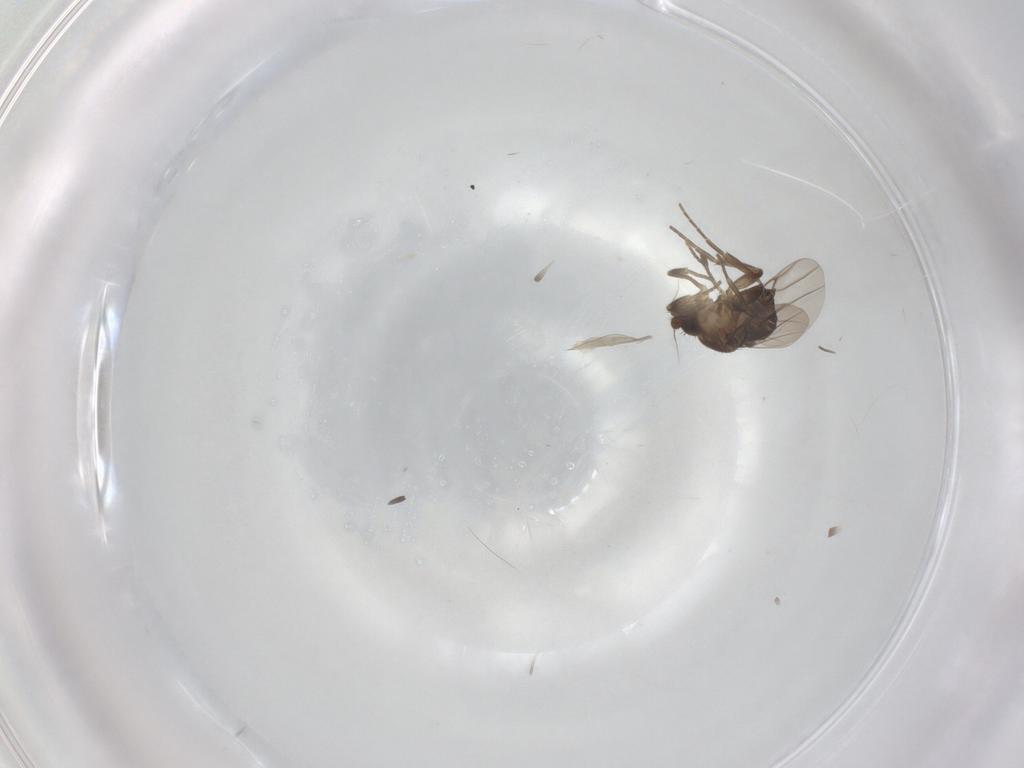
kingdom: Animalia
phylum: Arthropoda
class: Insecta
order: Diptera
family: Phoridae
